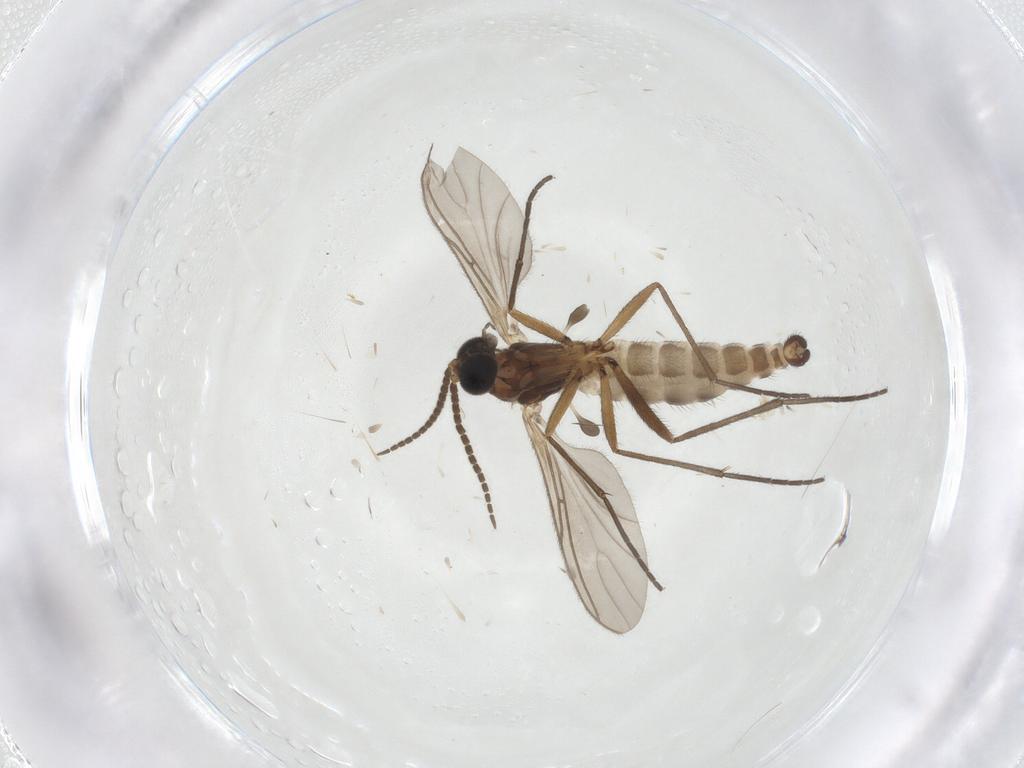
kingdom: Animalia
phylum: Arthropoda
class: Insecta
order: Diptera
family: Sciaridae
